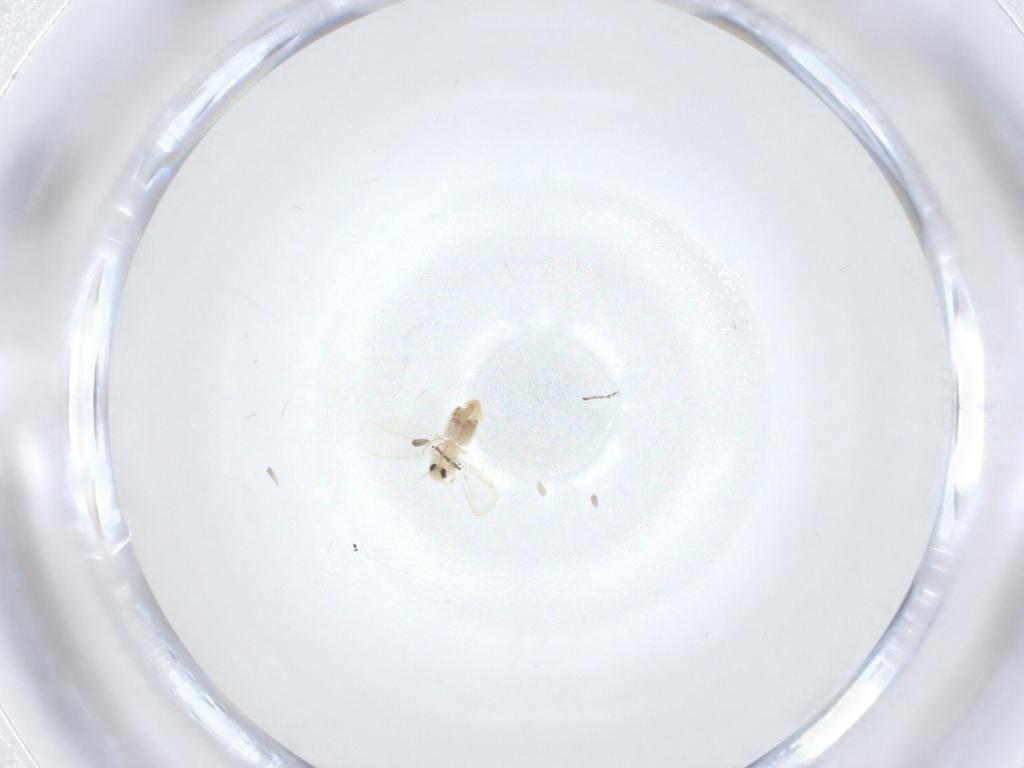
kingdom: Animalia
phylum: Arthropoda
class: Insecta
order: Hemiptera
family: Aleyrodidae
